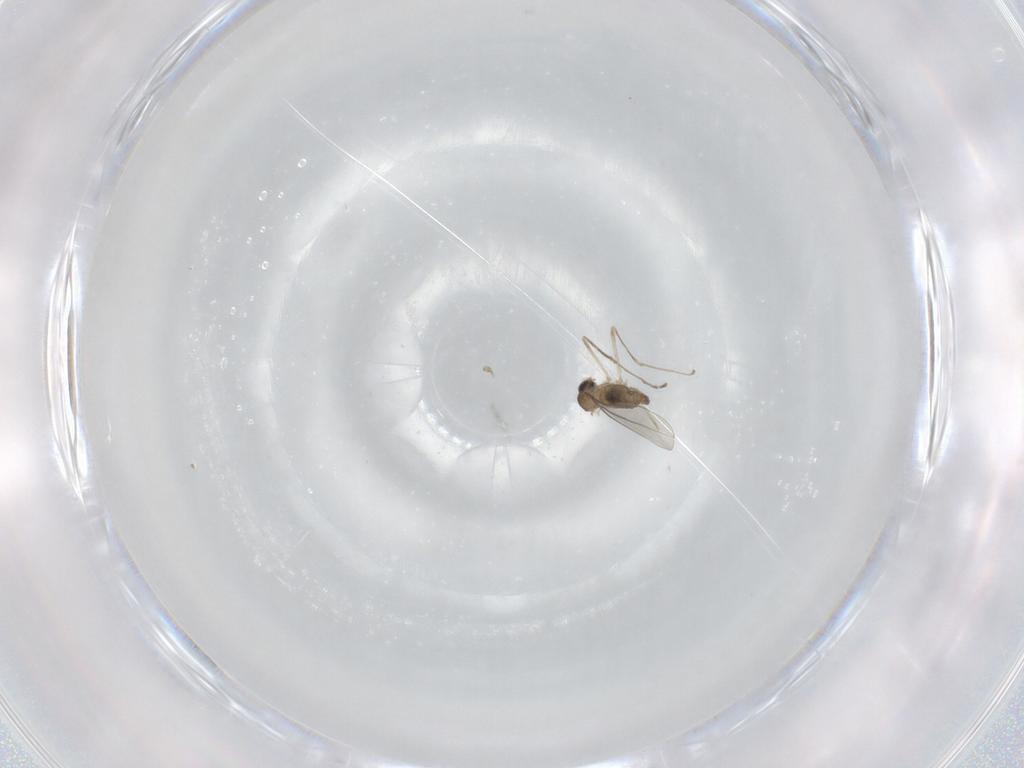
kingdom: Animalia
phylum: Arthropoda
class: Insecta
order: Diptera
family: Cecidomyiidae
